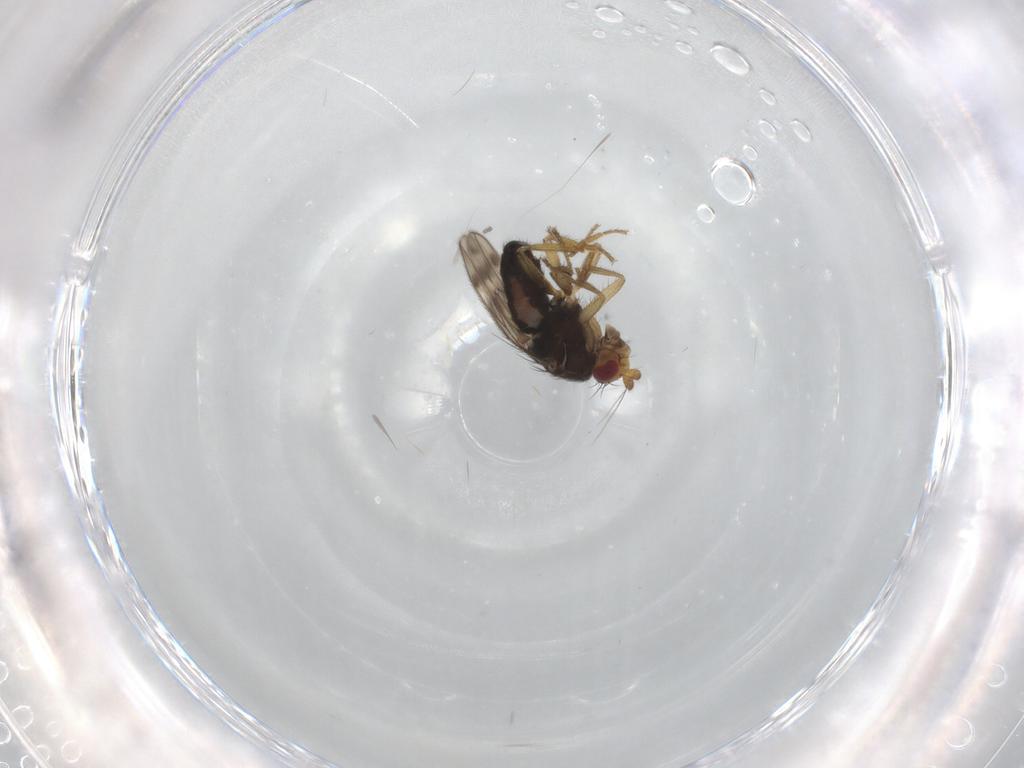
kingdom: Animalia
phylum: Arthropoda
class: Insecta
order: Diptera
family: Sphaeroceridae
